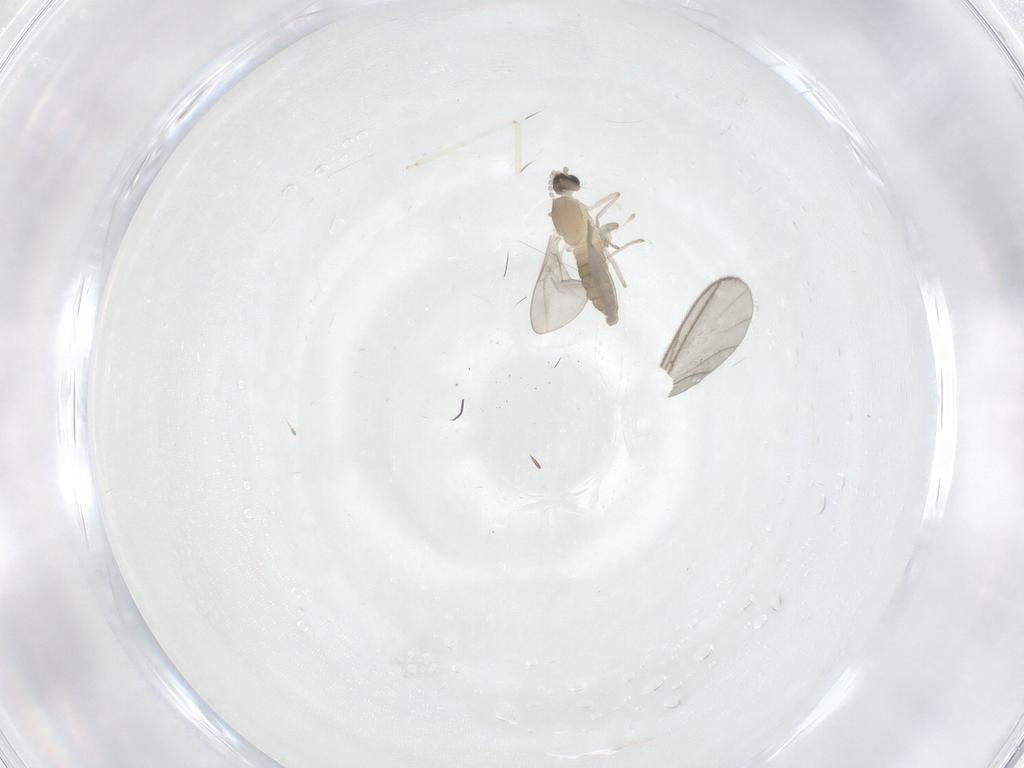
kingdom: Animalia
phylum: Arthropoda
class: Insecta
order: Diptera
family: Cecidomyiidae
